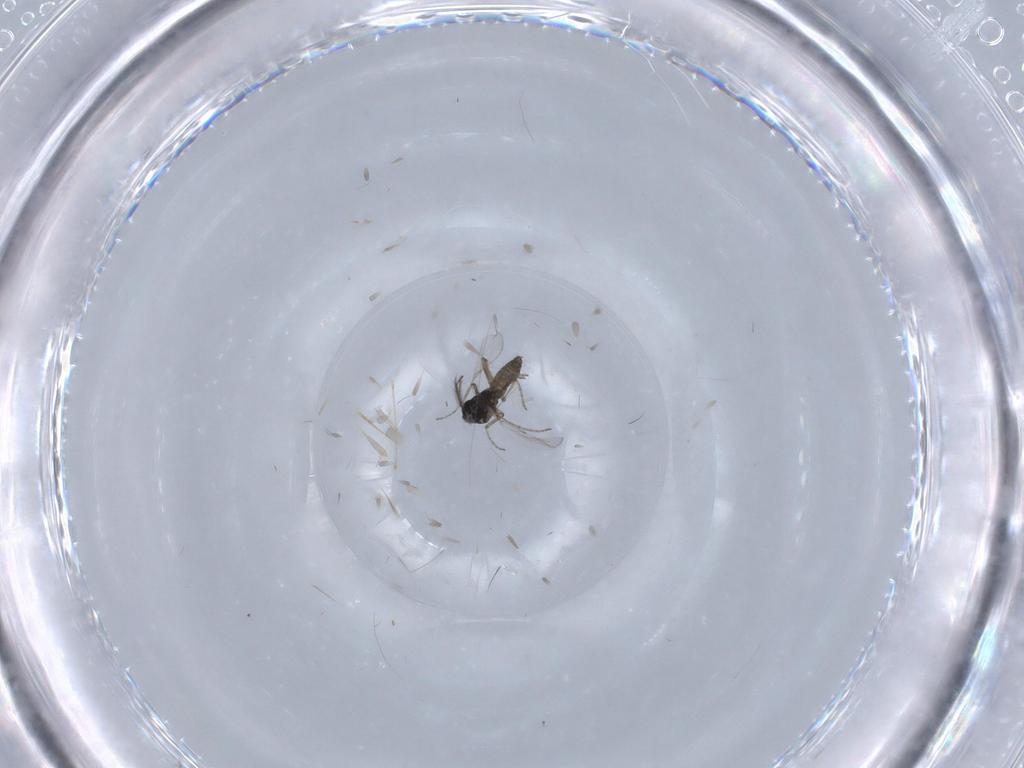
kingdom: Animalia
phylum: Arthropoda
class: Insecta
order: Diptera
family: Ceratopogonidae
